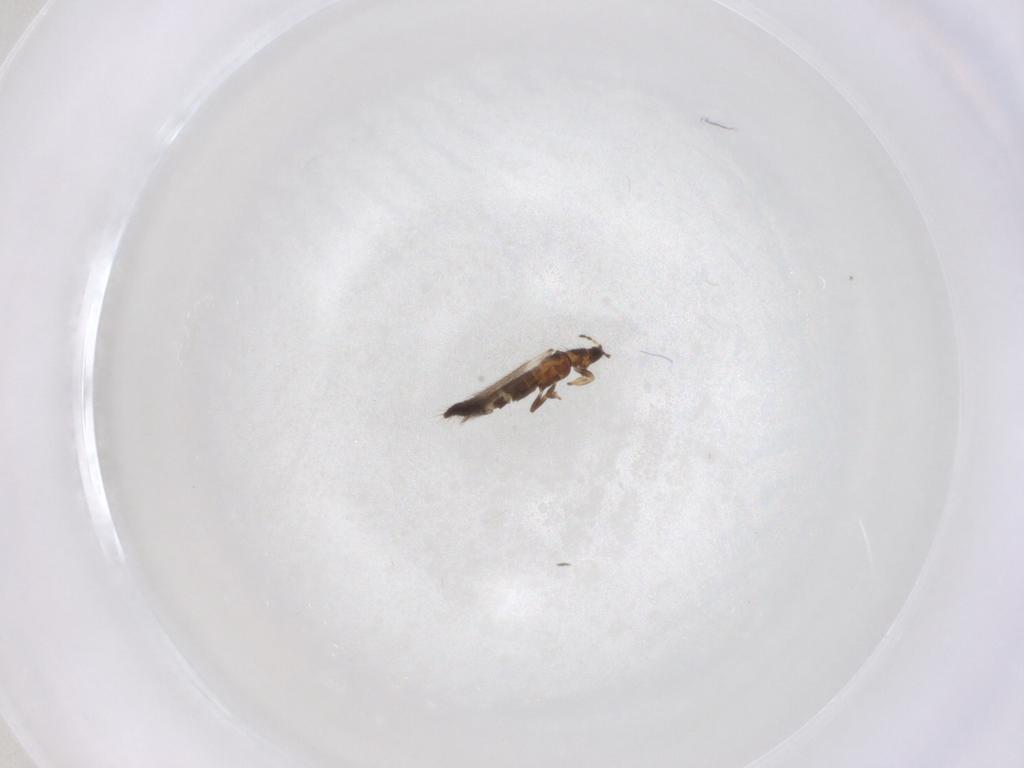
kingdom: Animalia
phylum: Arthropoda
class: Insecta
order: Thysanoptera
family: Thripidae
